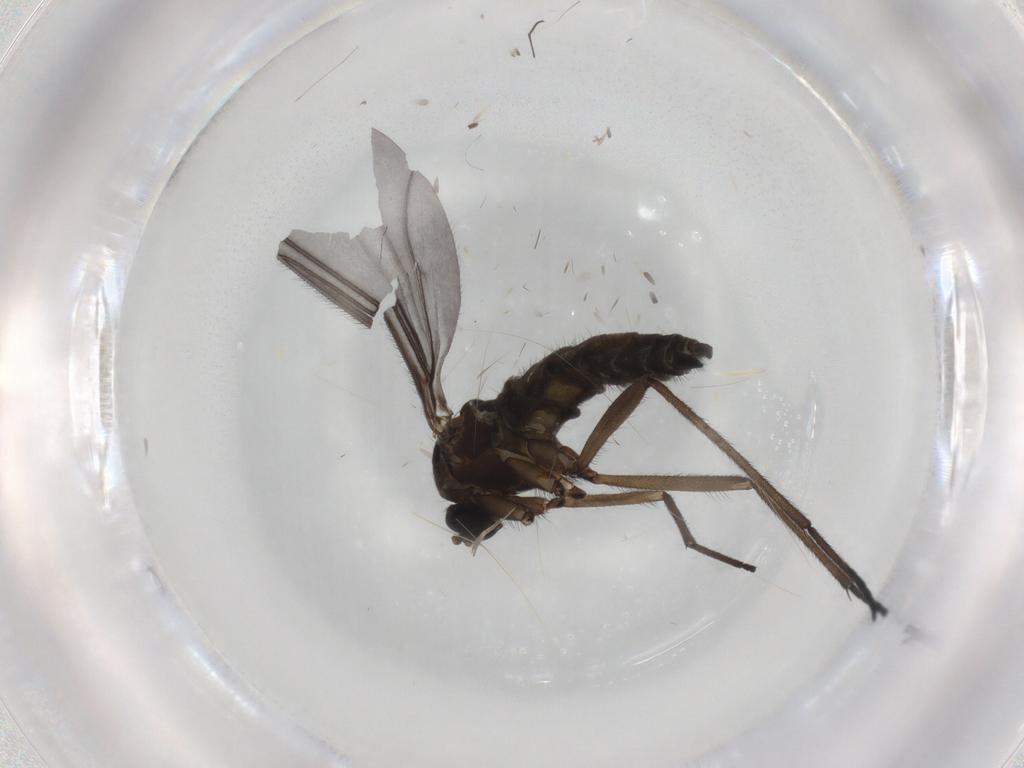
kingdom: Animalia
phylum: Arthropoda
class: Insecta
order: Diptera
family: Sciaridae
